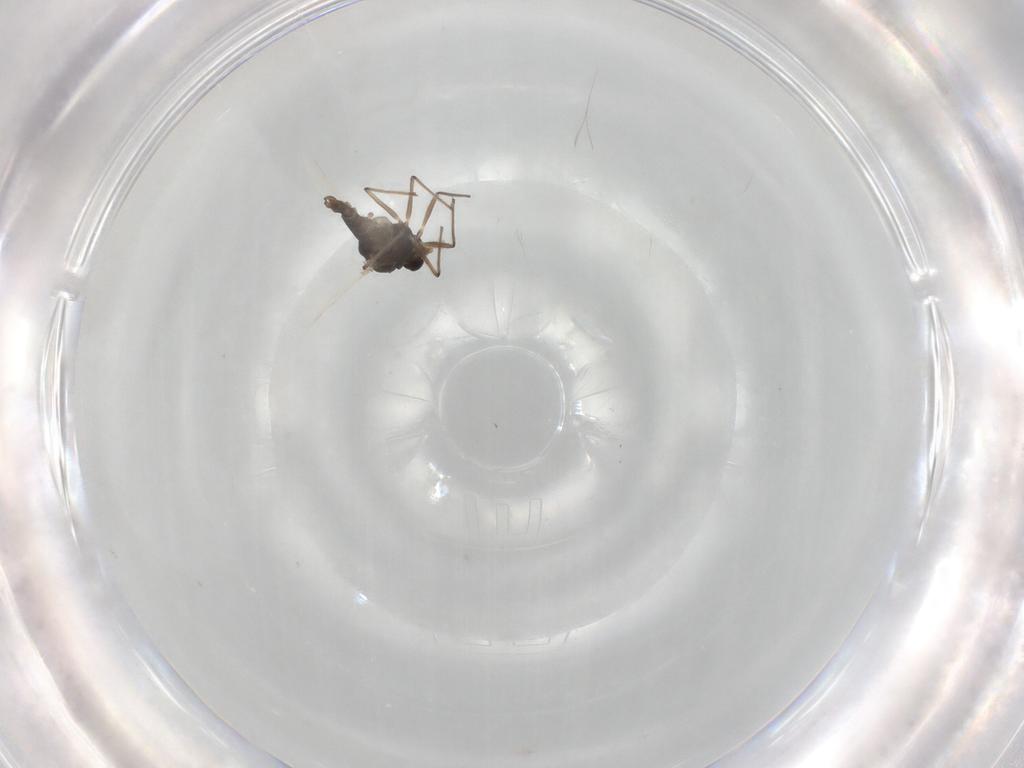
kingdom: Animalia
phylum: Arthropoda
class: Insecta
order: Diptera
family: Chironomidae
